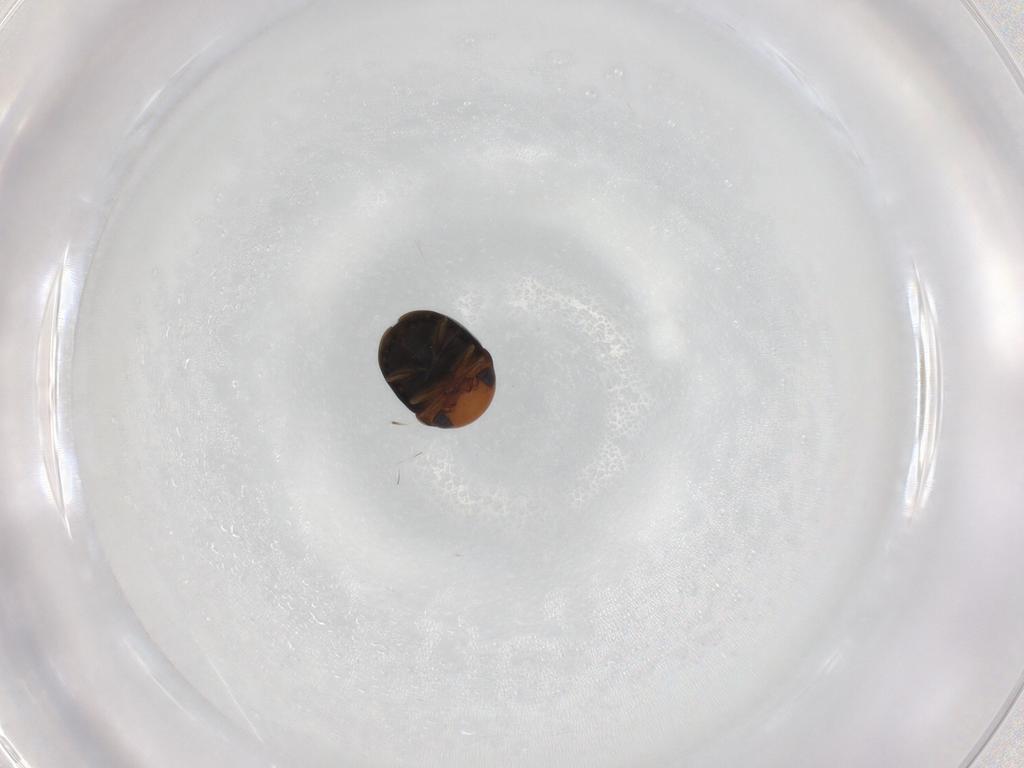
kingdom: Animalia
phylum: Arthropoda
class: Insecta
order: Coleoptera
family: Cybocephalidae
